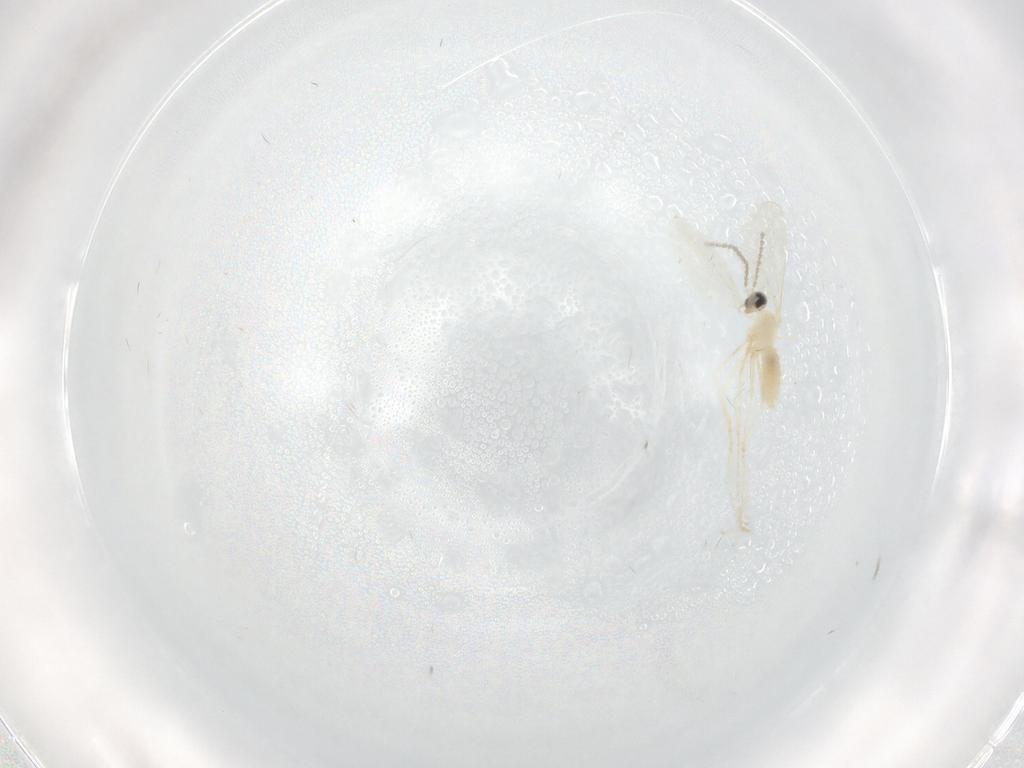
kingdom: Animalia
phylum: Arthropoda
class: Insecta
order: Diptera
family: Cecidomyiidae
